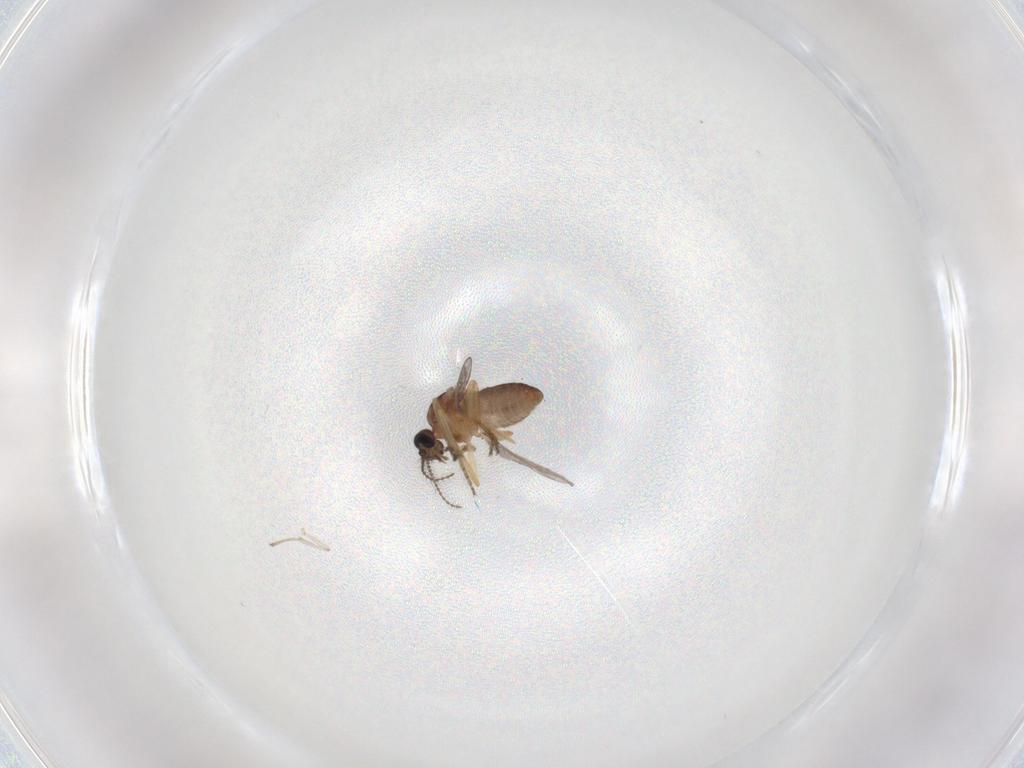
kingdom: Animalia
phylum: Arthropoda
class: Insecta
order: Diptera
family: Ceratopogonidae
